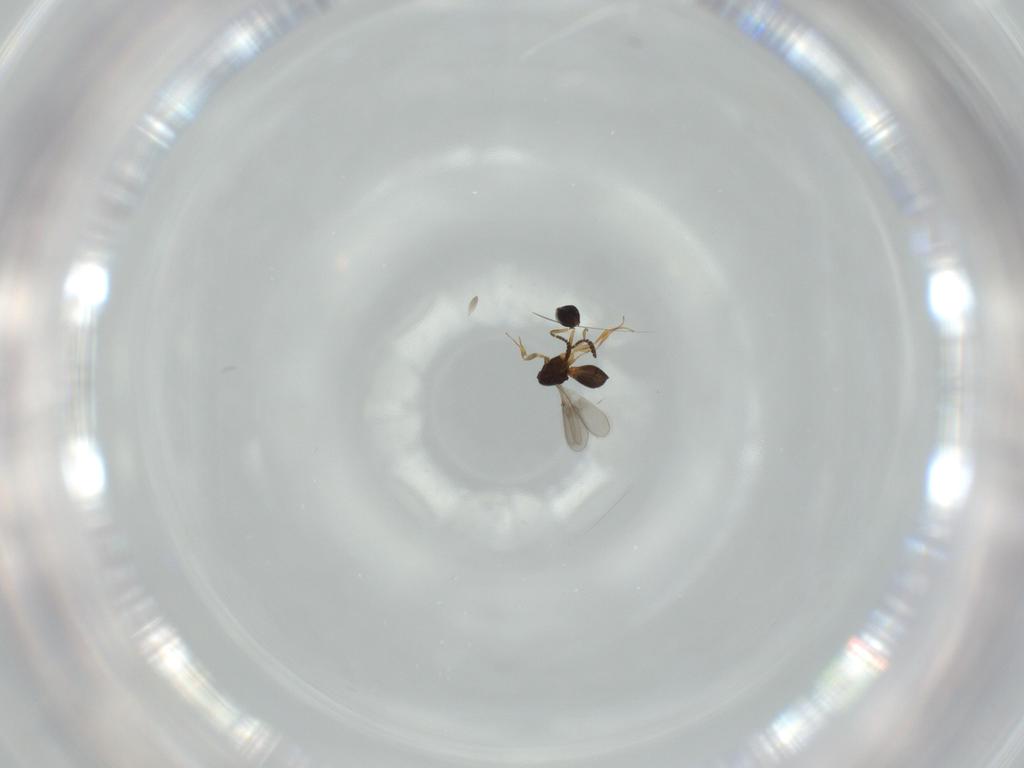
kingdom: Animalia
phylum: Arthropoda
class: Insecta
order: Hymenoptera
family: Scelionidae
